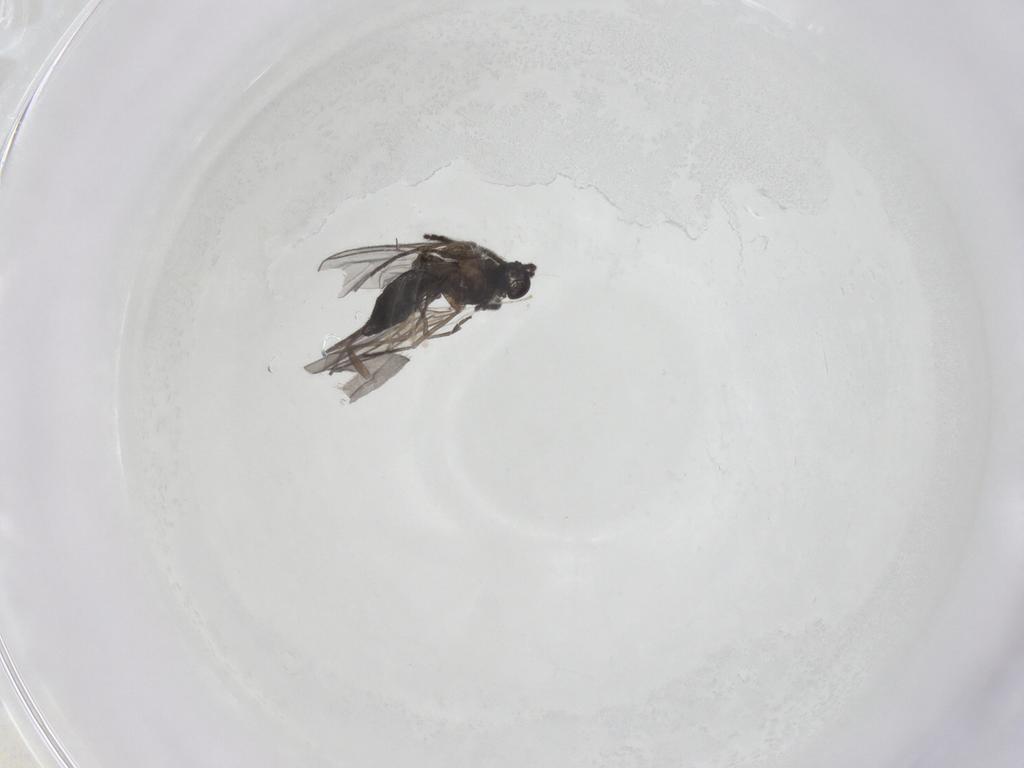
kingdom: Animalia
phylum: Arthropoda
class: Insecta
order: Diptera
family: Sciaridae
